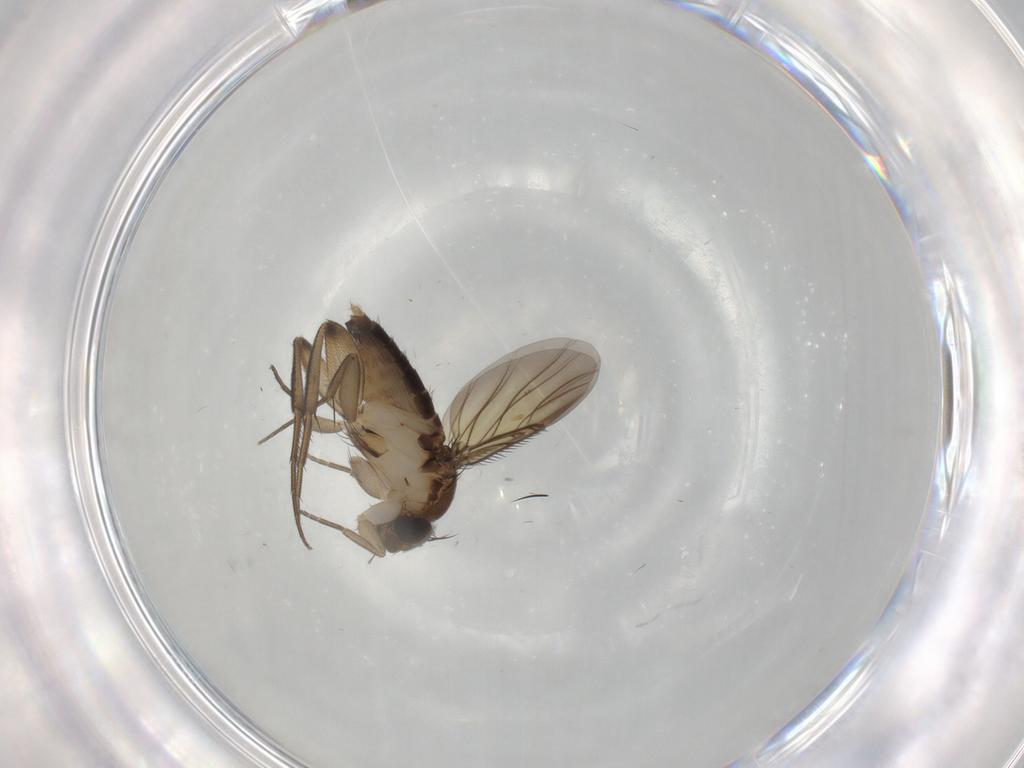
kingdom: Animalia
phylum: Arthropoda
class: Insecta
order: Diptera
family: Phoridae
